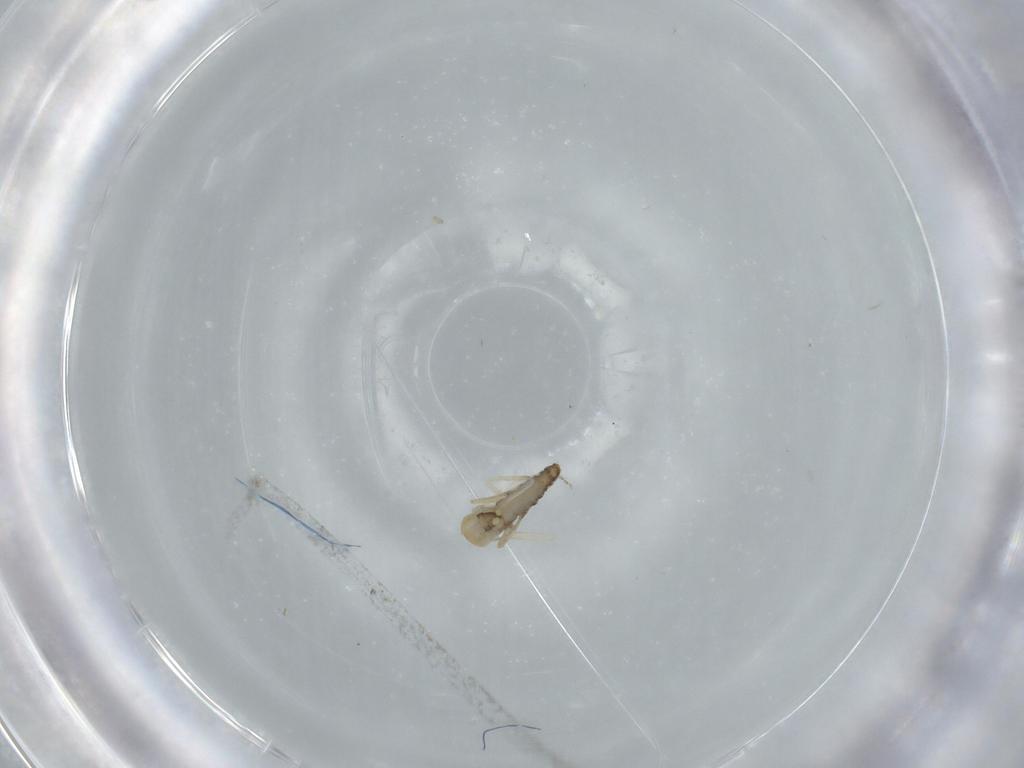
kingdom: Animalia
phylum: Arthropoda
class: Insecta
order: Diptera
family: Ceratopogonidae
